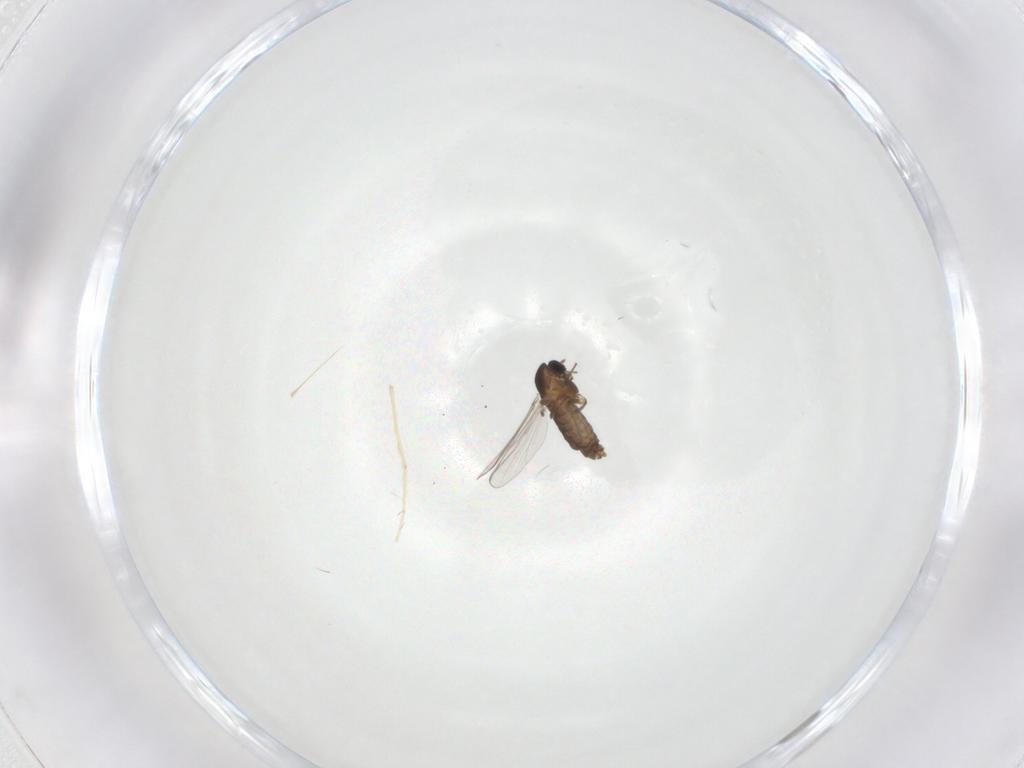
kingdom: Animalia
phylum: Arthropoda
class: Insecta
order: Diptera
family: Chironomidae
